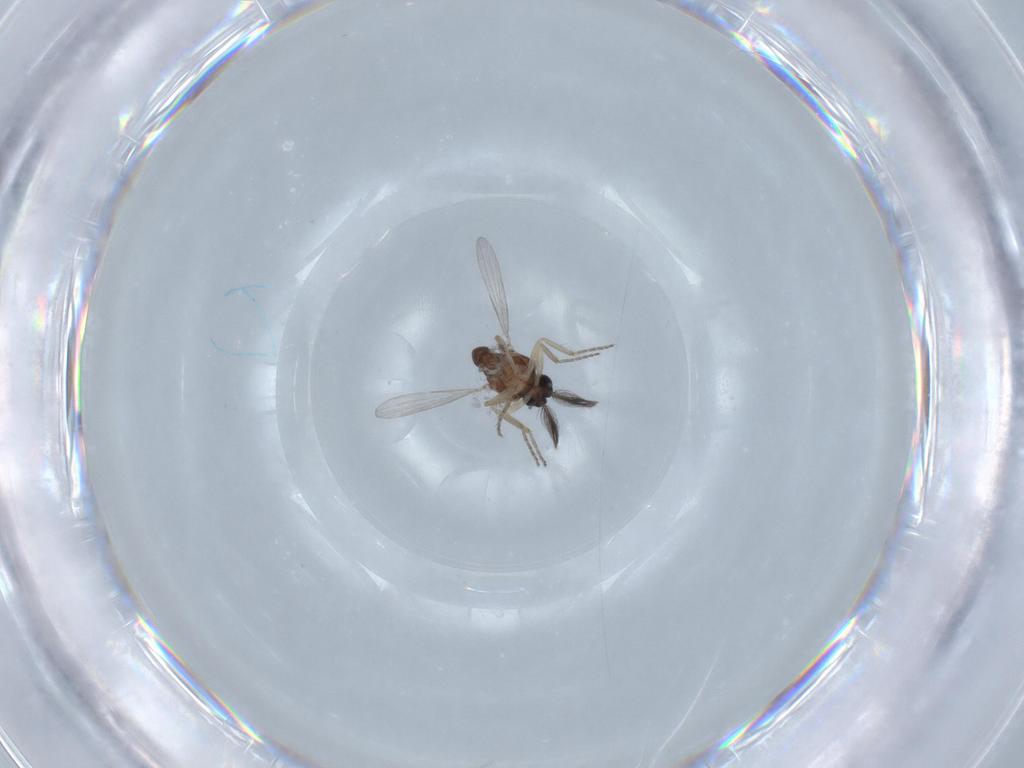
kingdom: Animalia
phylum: Arthropoda
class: Insecta
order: Diptera
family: Ceratopogonidae
